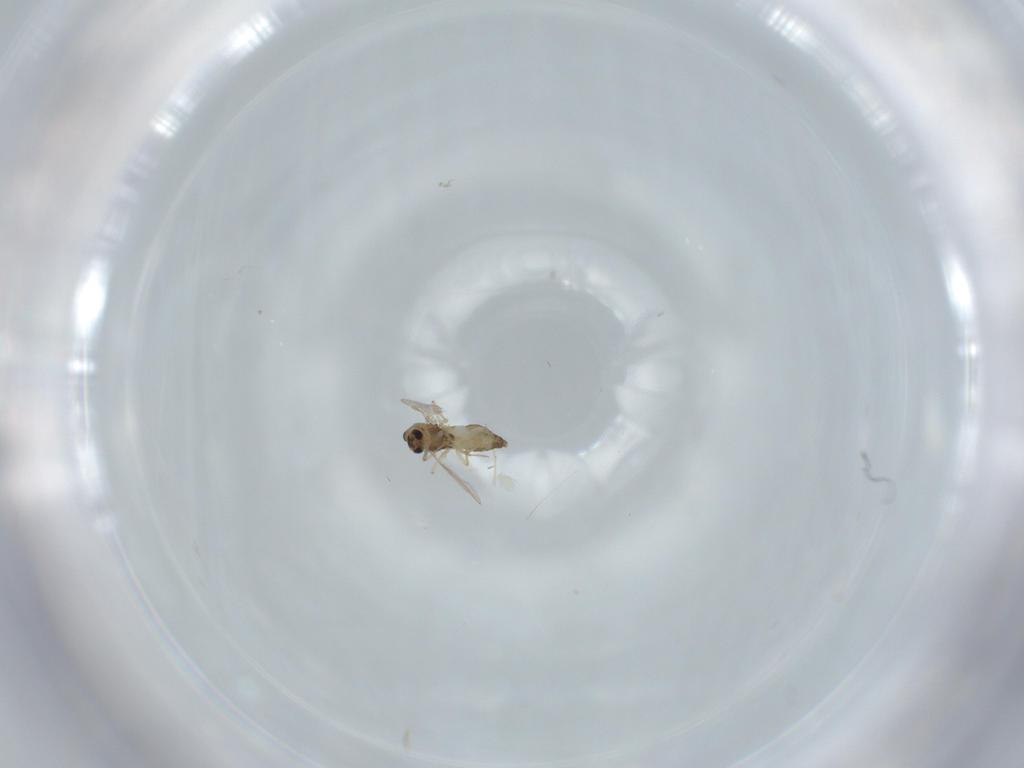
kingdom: Animalia
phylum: Arthropoda
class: Insecta
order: Diptera
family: Chironomidae
